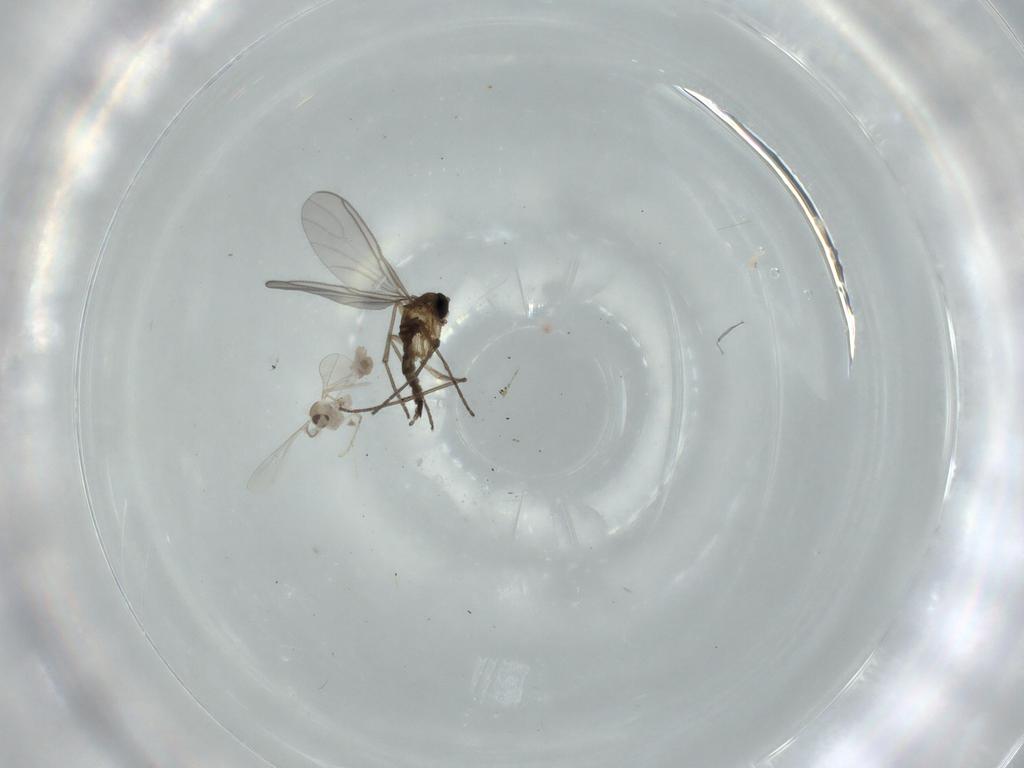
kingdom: Animalia
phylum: Arthropoda
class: Insecta
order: Diptera
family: Cecidomyiidae
